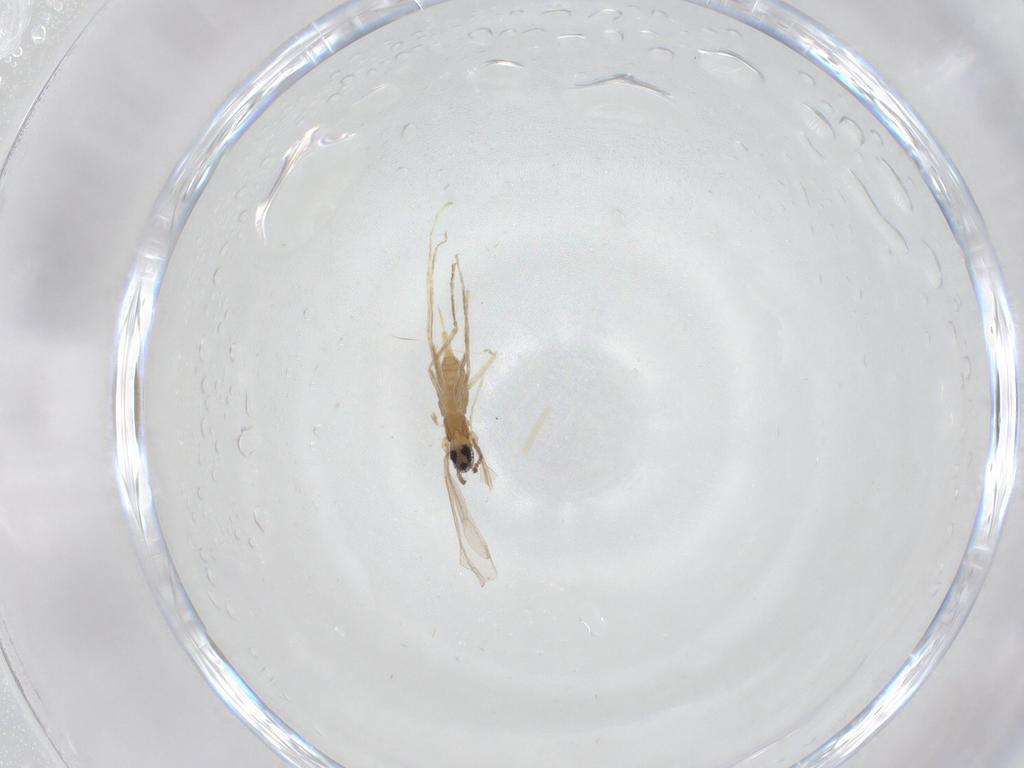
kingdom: Animalia
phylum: Arthropoda
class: Insecta
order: Diptera
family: Cecidomyiidae
